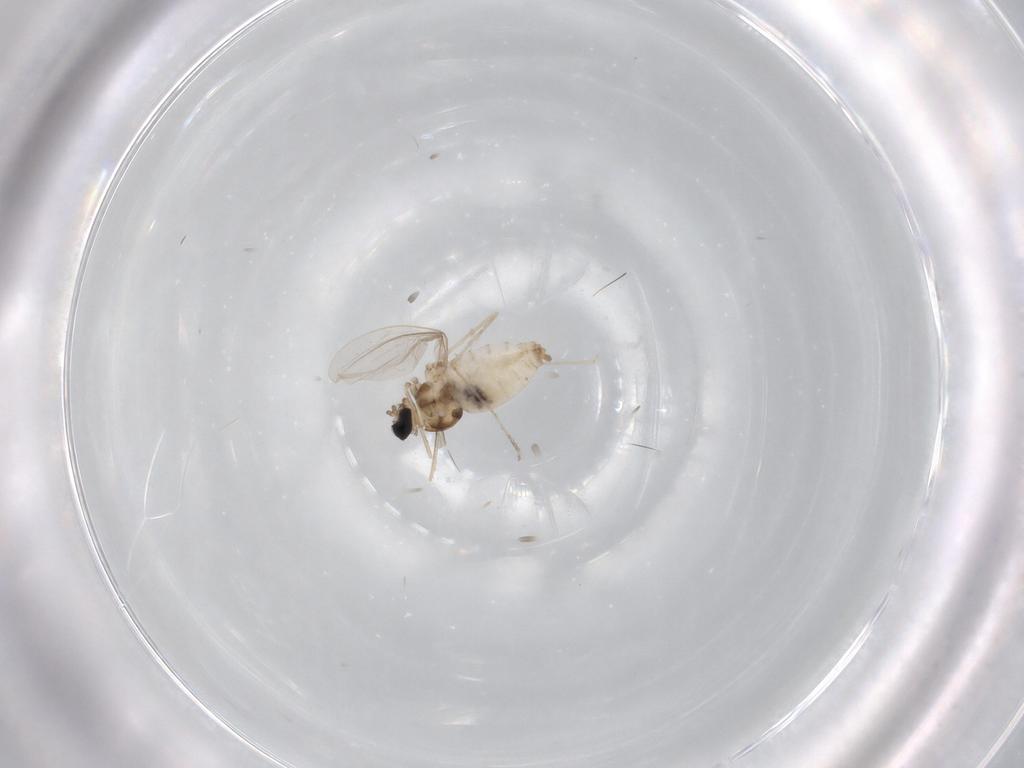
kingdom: Animalia
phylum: Arthropoda
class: Insecta
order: Diptera
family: Cecidomyiidae
